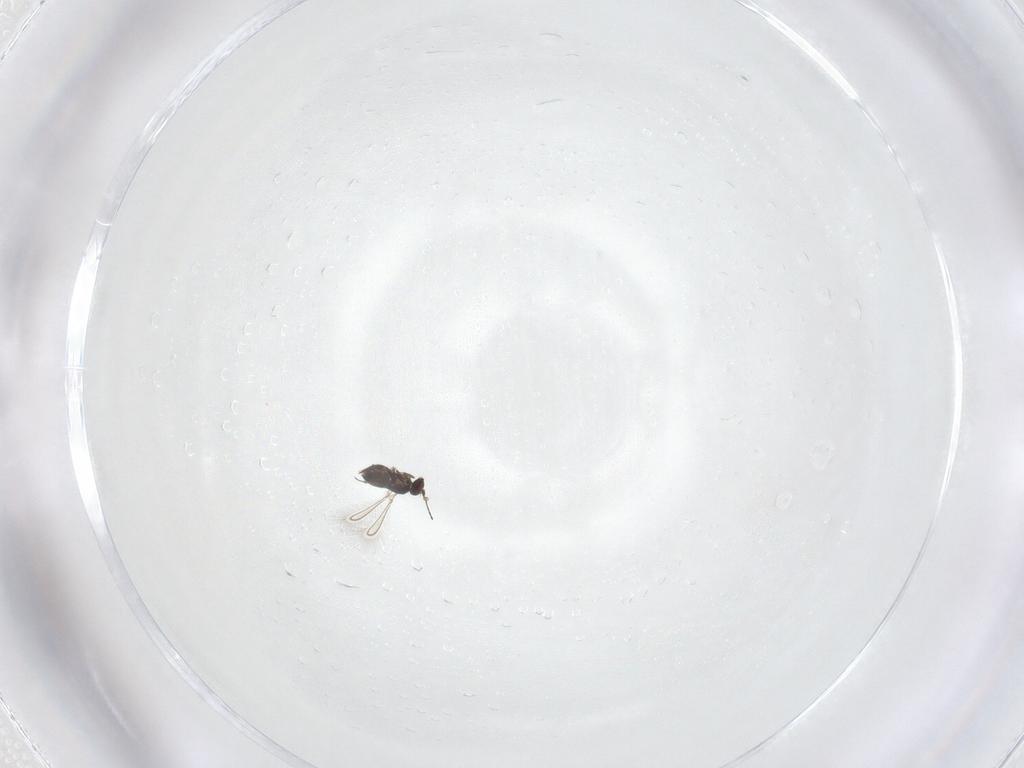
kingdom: Animalia
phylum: Arthropoda
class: Insecta
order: Hymenoptera
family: Mymaridae
